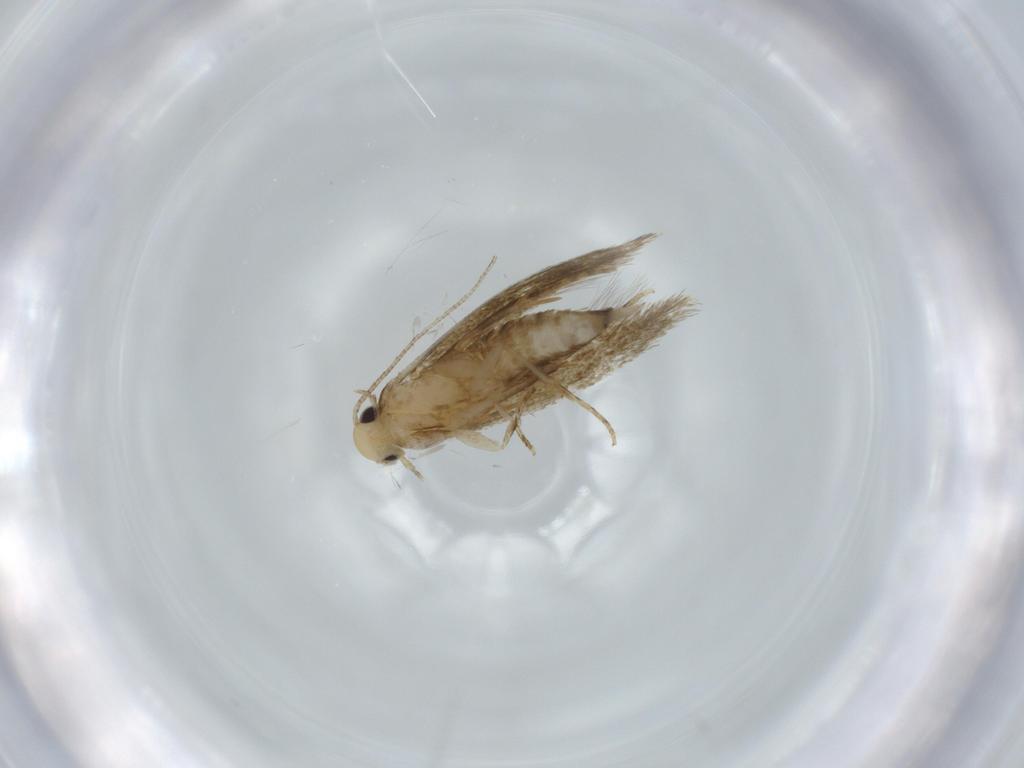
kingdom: Animalia
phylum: Arthropoda
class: Insecta
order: Lepidoptera
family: Tineidae
